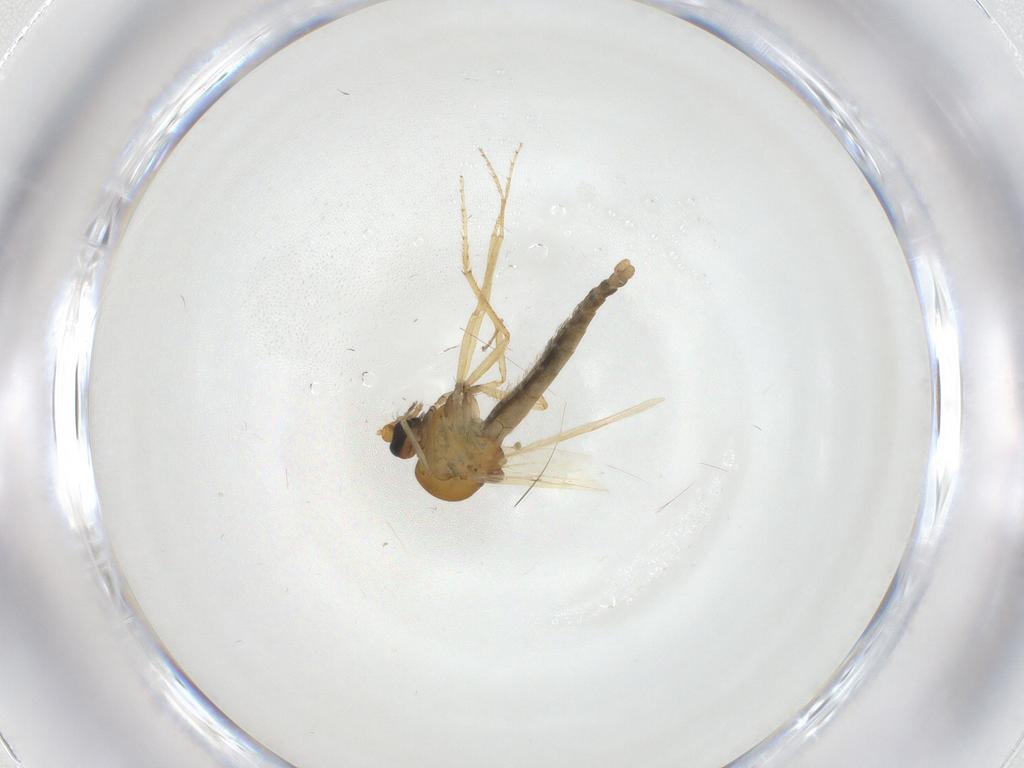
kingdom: Animalia
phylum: Arthropoda
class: Insecta
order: Diptera
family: Ceratopogonidae
